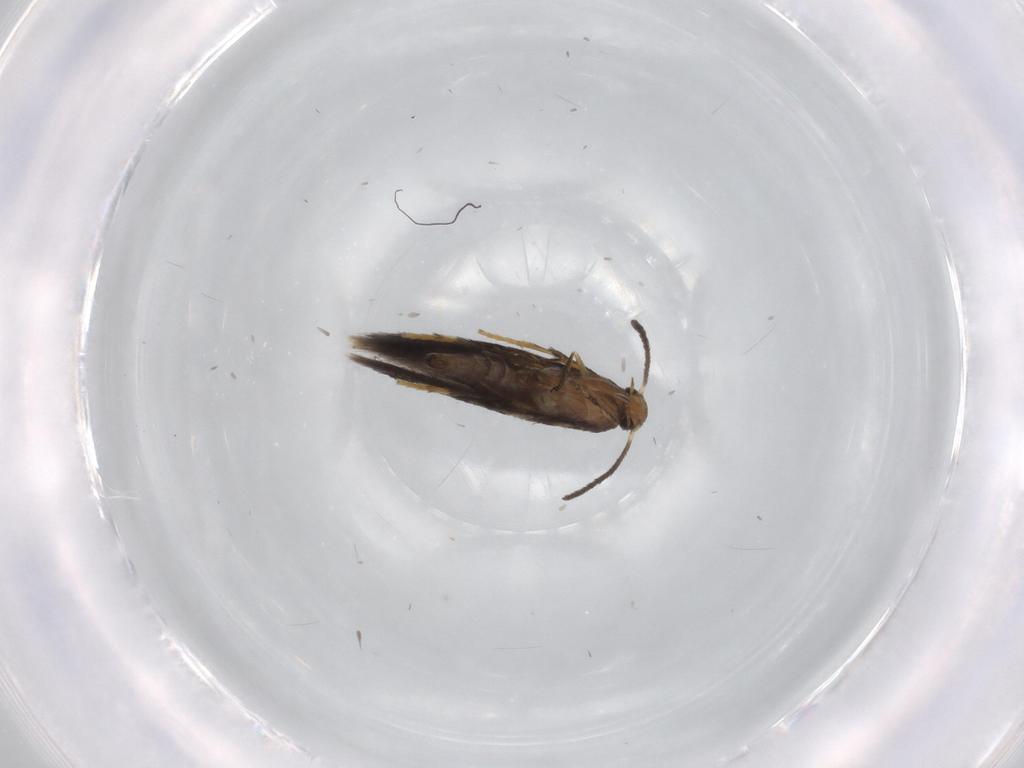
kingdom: Animalia
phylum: Arthropoda
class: Insecta
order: Lepidoptera
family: Heliozelidae
